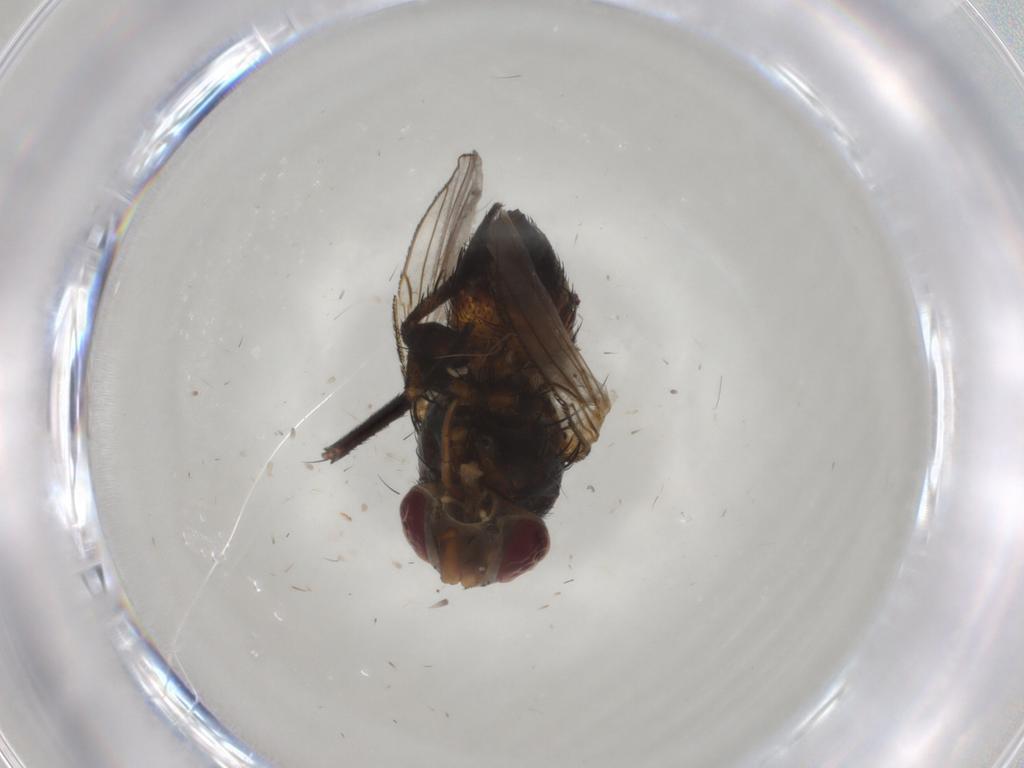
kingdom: Animalia
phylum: Arthropoda
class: Insecta
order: Diptera
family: Glossinidae
